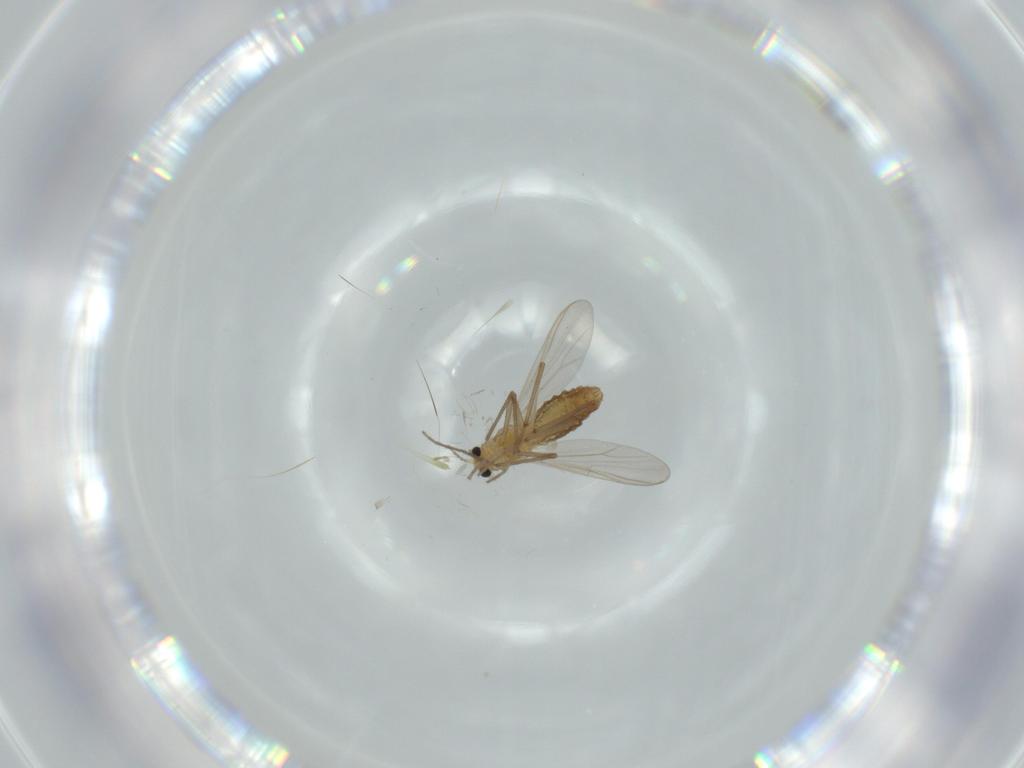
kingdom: Animalia
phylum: Arthropoda
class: Insecta
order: Diptera
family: Chironomidae
